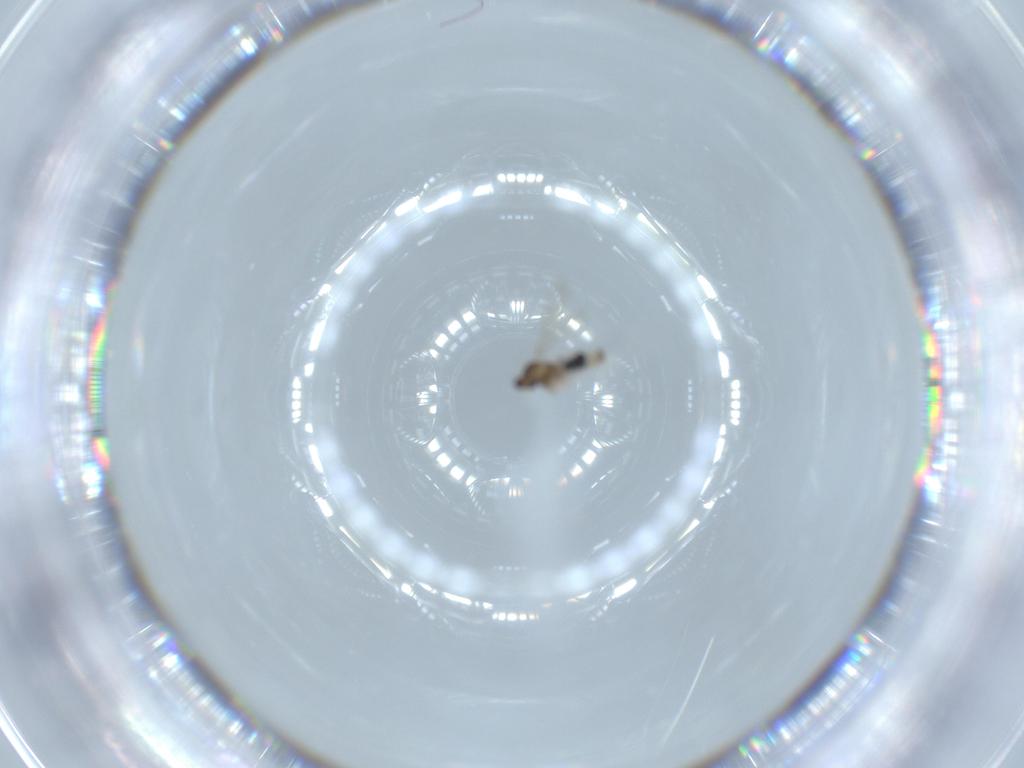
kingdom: Animalia
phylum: Arthropoda
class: Insecta
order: Diptera
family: Cecidomyiidae
